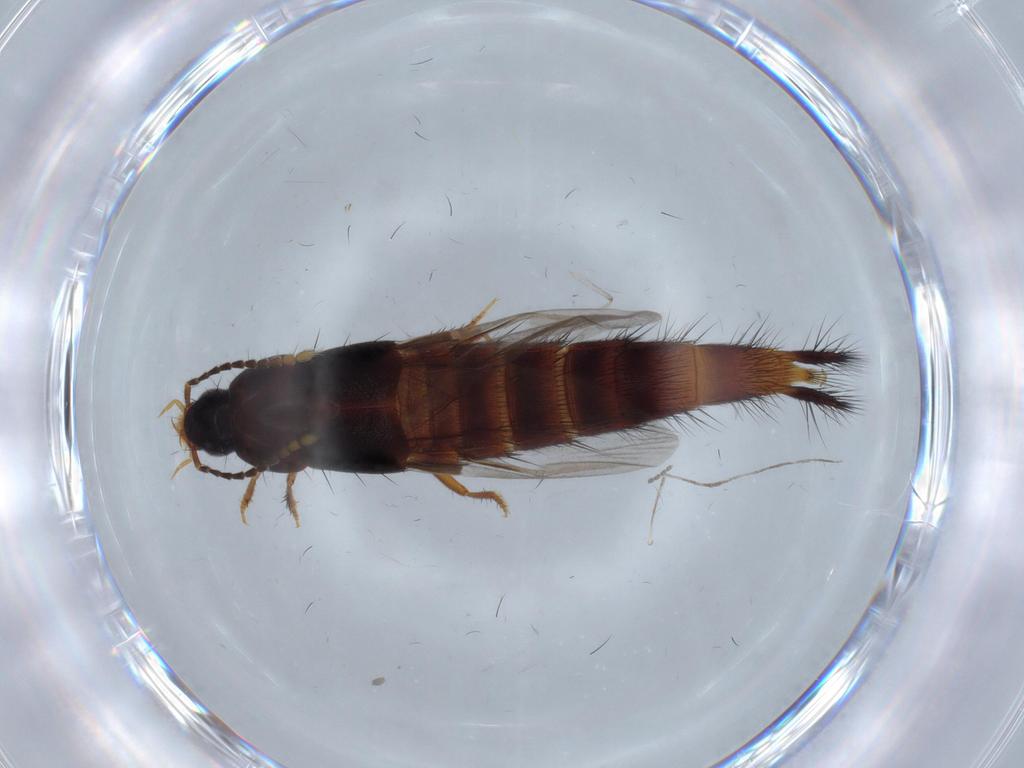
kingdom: Animalia
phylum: Arthropoda
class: Insecta
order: Coleoptera
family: Staphylinidae
